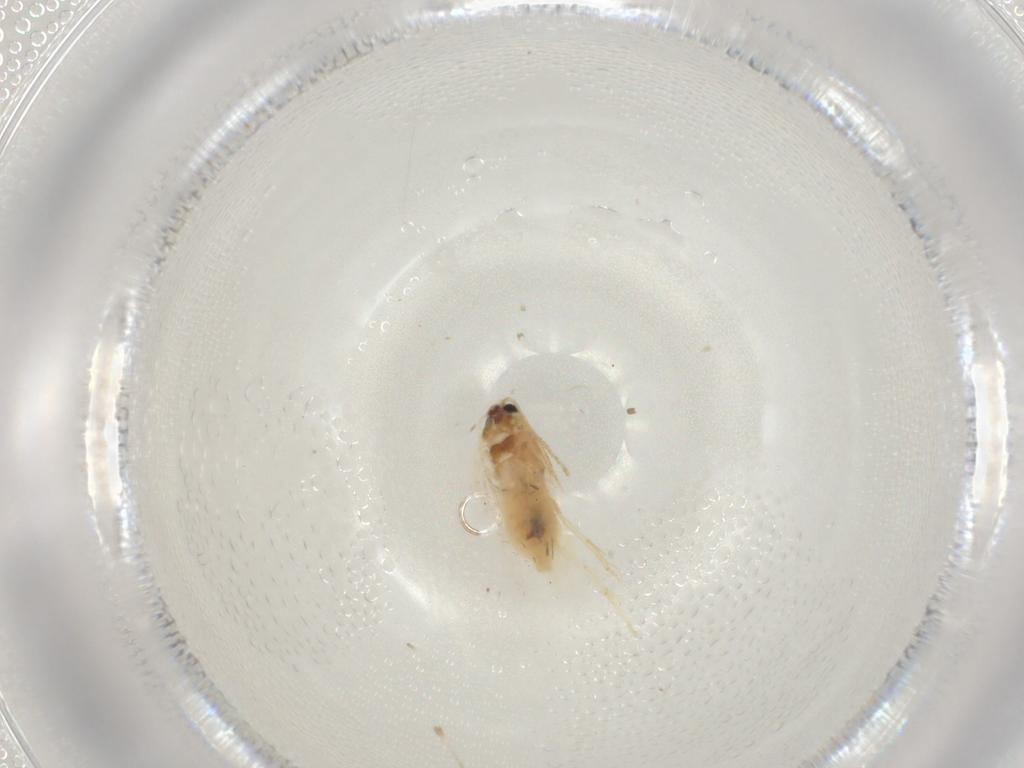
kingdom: Animalia
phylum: Arthropoda
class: Insecta
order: Lepidoptera
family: Nepticulidae
